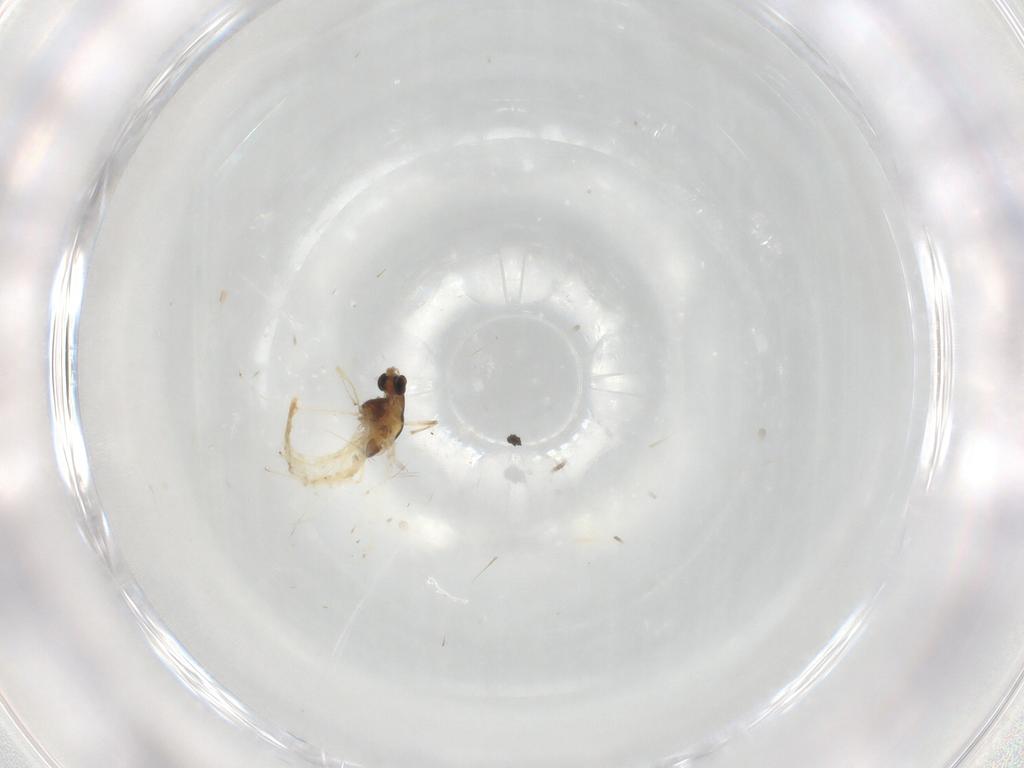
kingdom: Animalia
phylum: Arthropoda
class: Insecta
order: Diptera
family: Chironomidae
